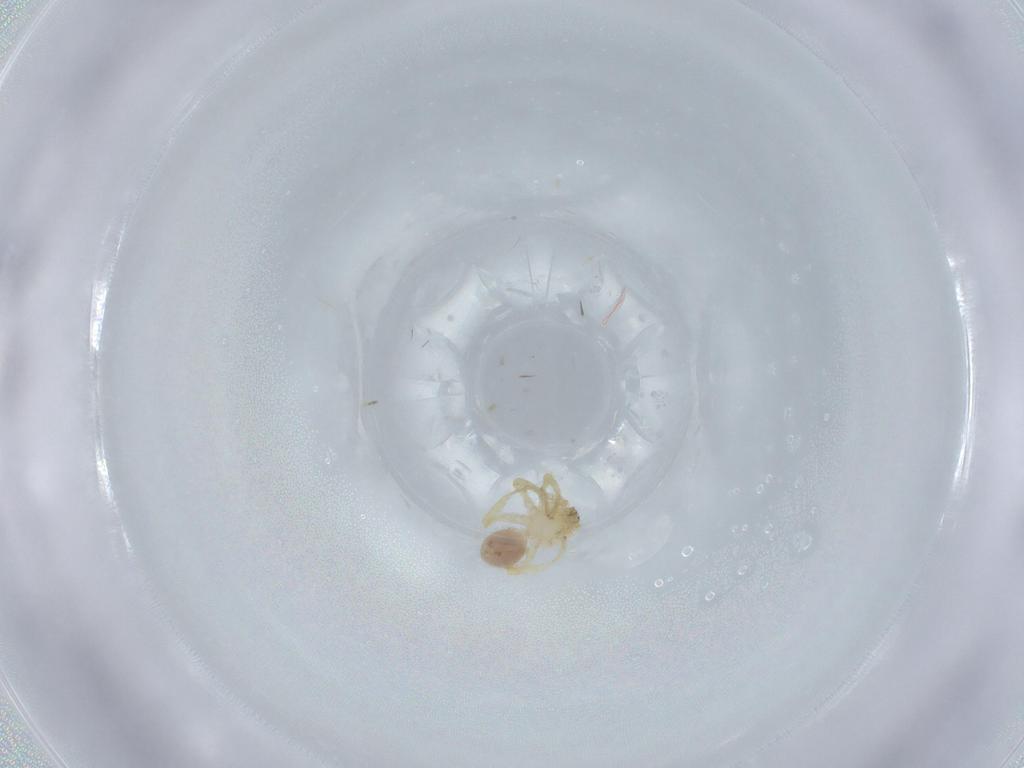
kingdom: Animalia
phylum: Arthropoda
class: Arachnida
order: Araneae
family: Oonopidae
